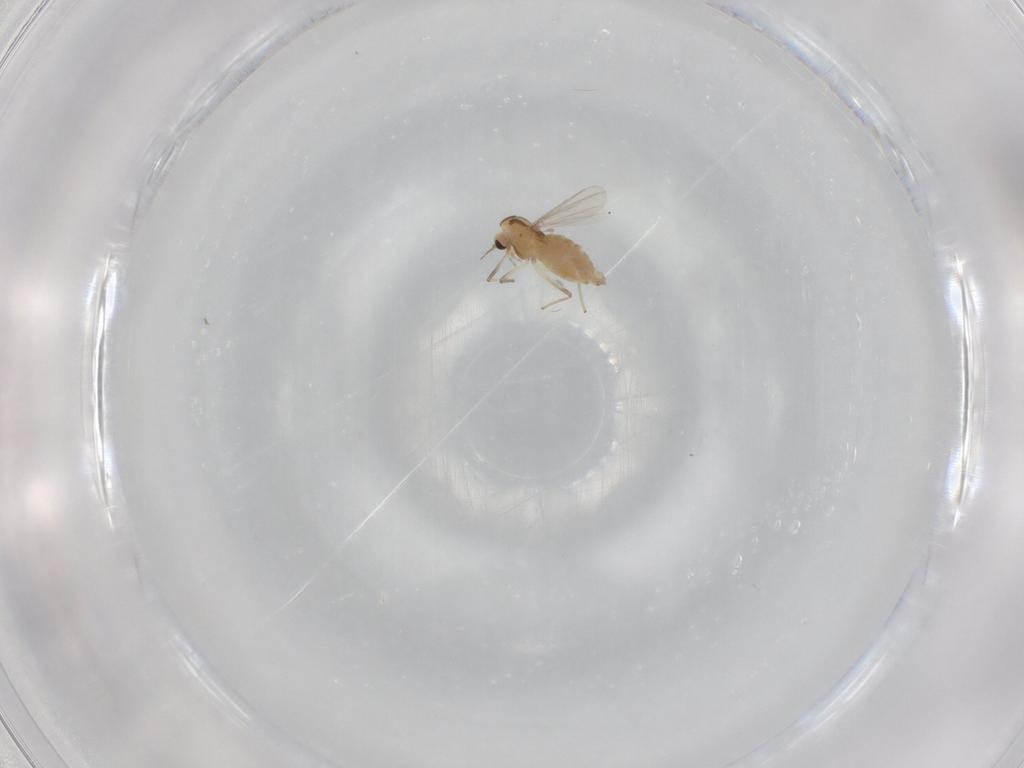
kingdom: Animalia
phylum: Arthropoda
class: Insecta
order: Diptera
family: Chironomidae
